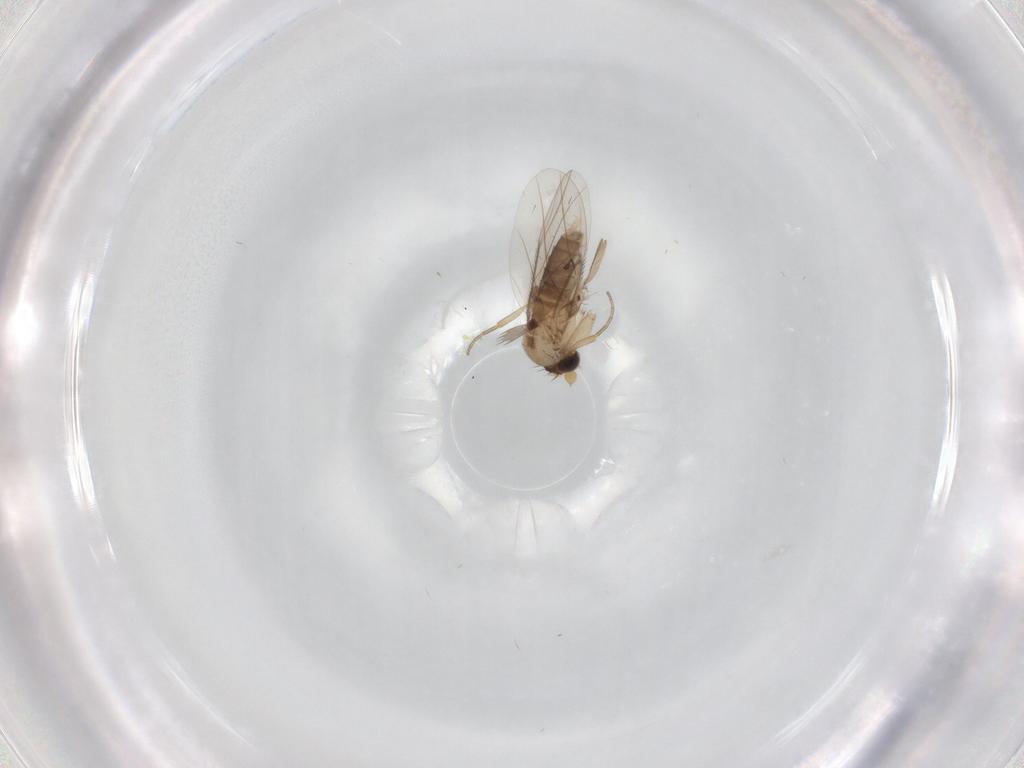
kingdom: Animalia
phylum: Arthropoda
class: Insecta
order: Diptera
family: Phoridae
